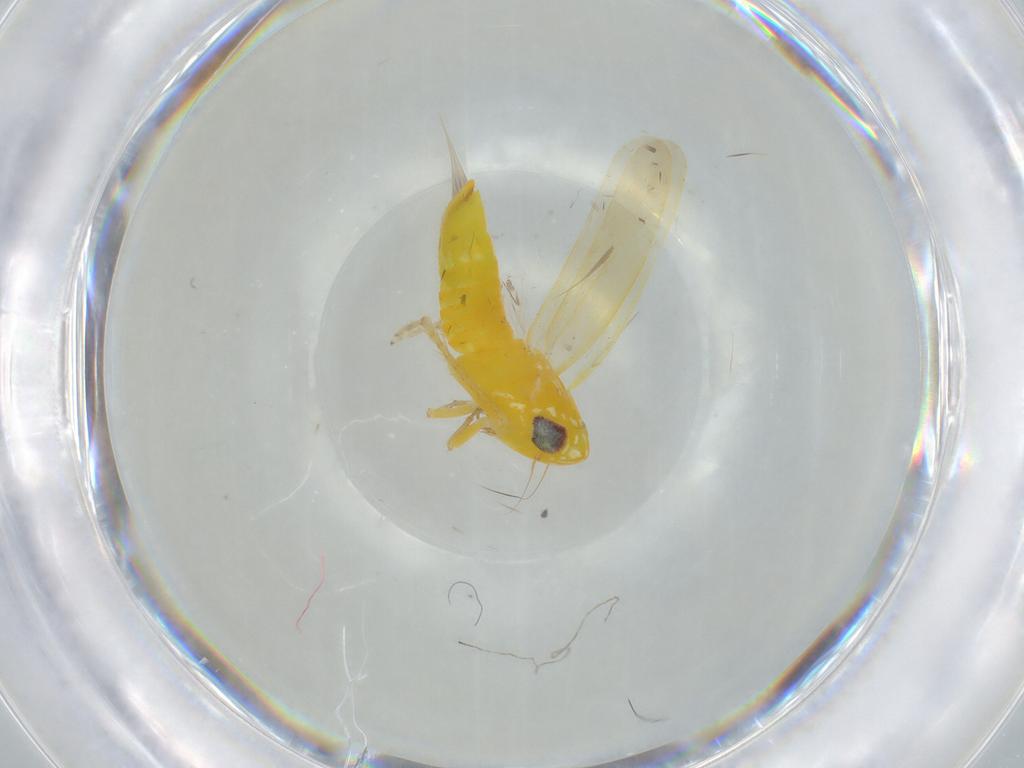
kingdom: Animalia
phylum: Arthropoda
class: Insecta
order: Hemiptera
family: Cicadellidae
